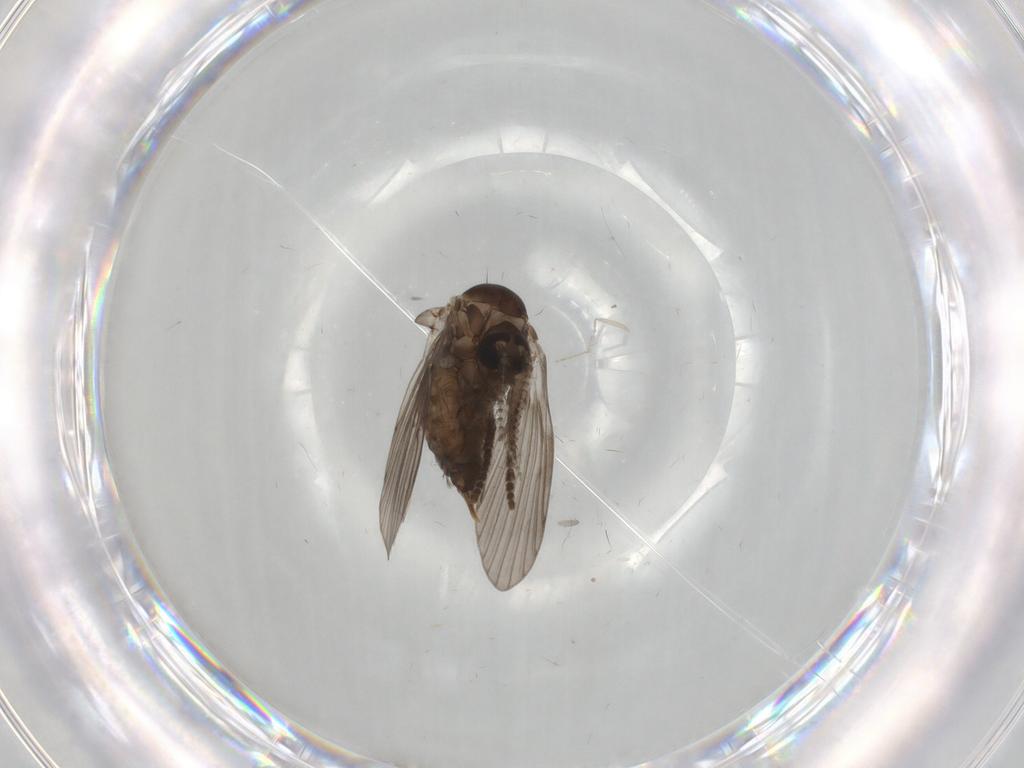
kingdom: Animalia
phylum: Arthropoda
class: Insecta
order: Diptera
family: Psychodidae
